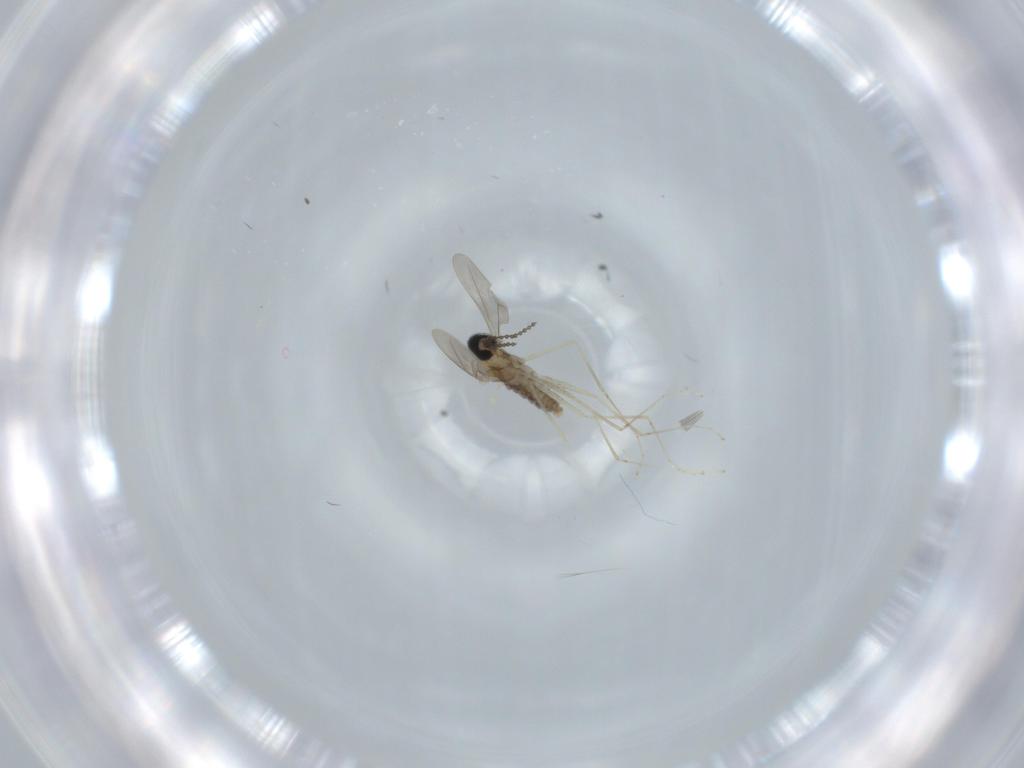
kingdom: Animalia
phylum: Arthropoda
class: Insecta
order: Diptera
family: Cecidomyiidae
